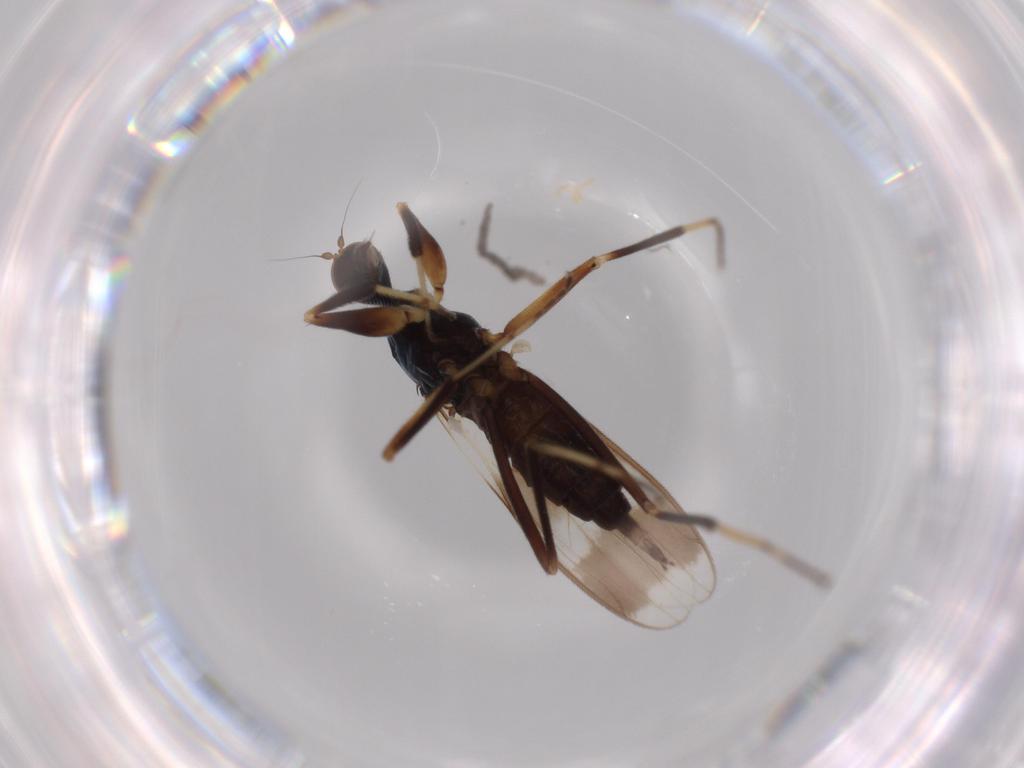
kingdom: Animalia
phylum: Arthropoda
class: Insecta
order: Diptera
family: Hybotidae
